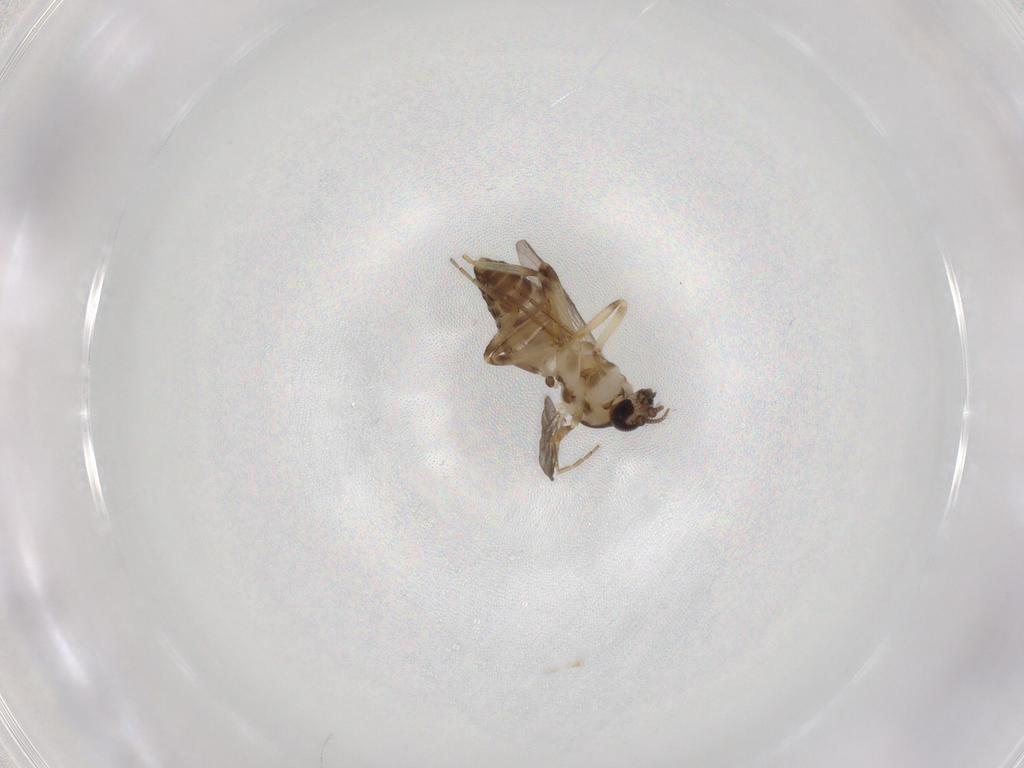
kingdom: Animalia
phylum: Arthropoda
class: Insecta
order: Diptera
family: Ceratopogonidae
